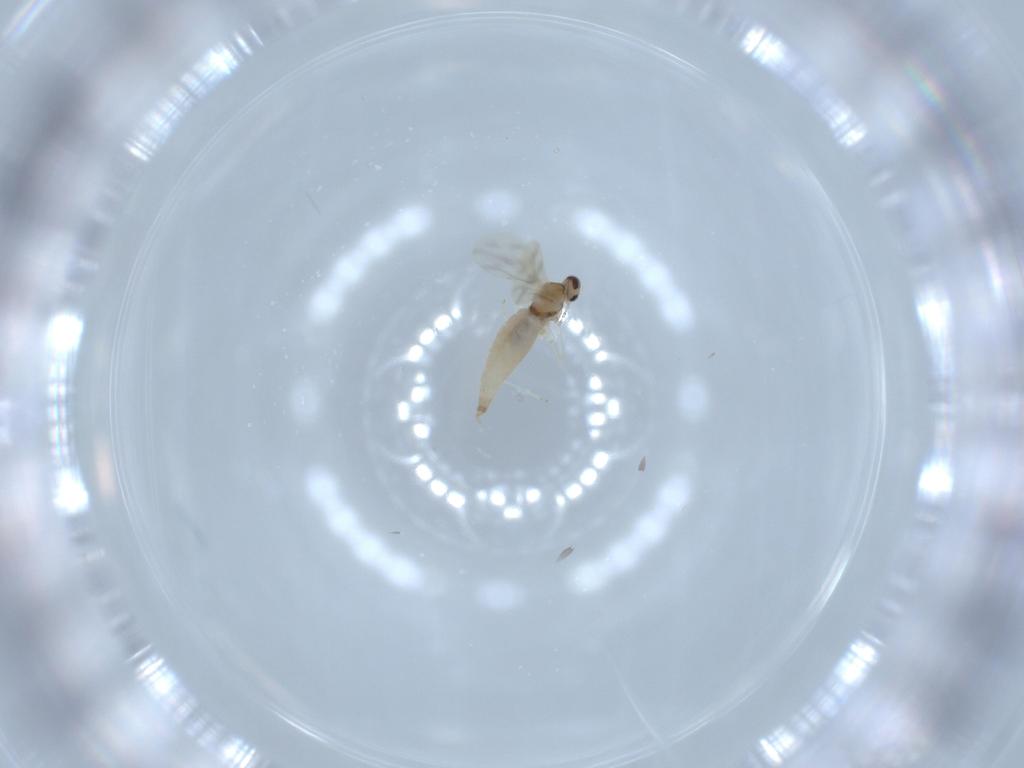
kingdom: Animalia
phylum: Arthropoda
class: Insecta
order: Diptera
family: Cecidomyiidae
